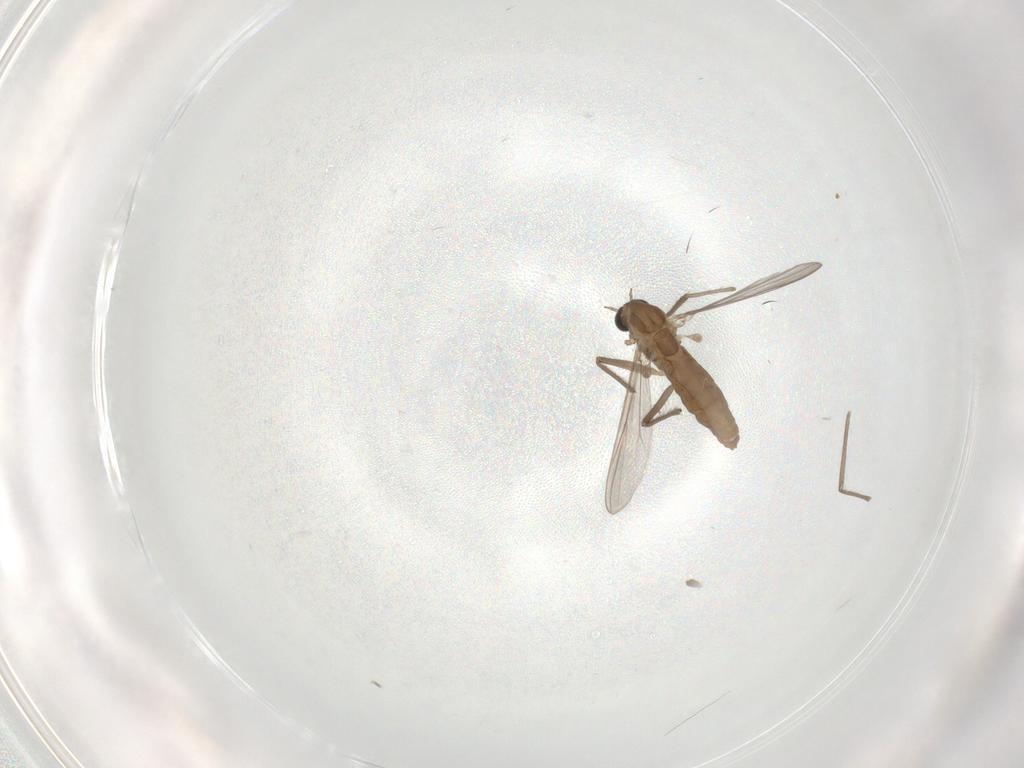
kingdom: Animalia
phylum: Arthropoda
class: Insecta
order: Diptera
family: Chironomidae
